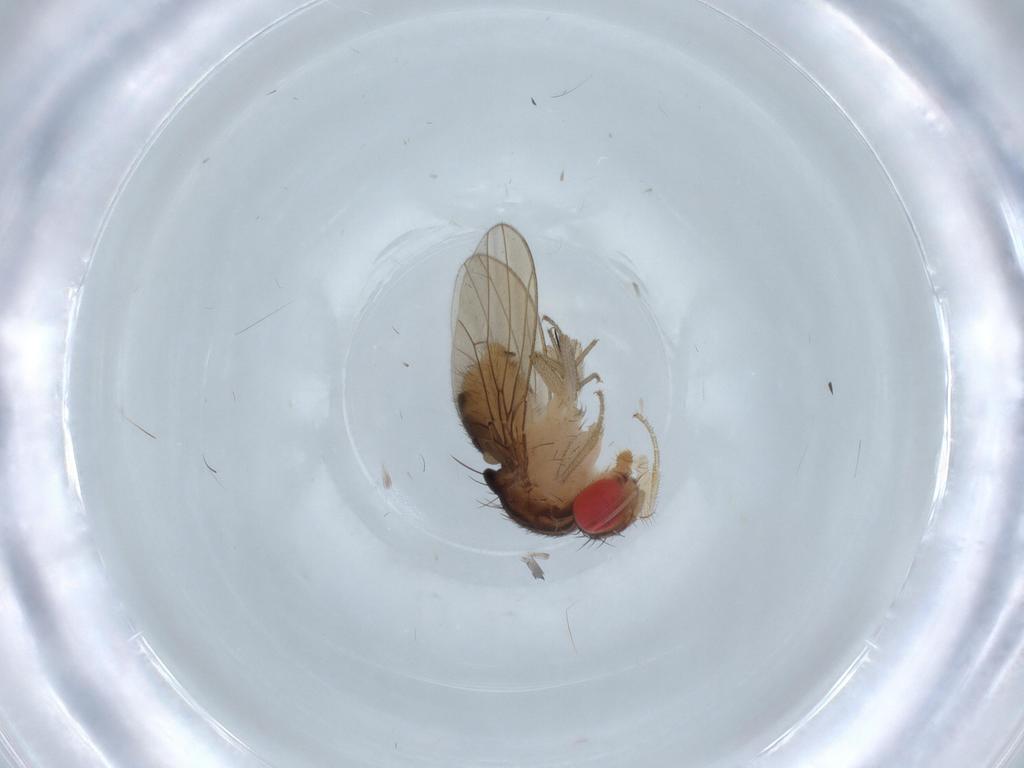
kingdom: Animalia
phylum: Arthropoda
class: Insecta
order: Diptera
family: Drosophilidae
